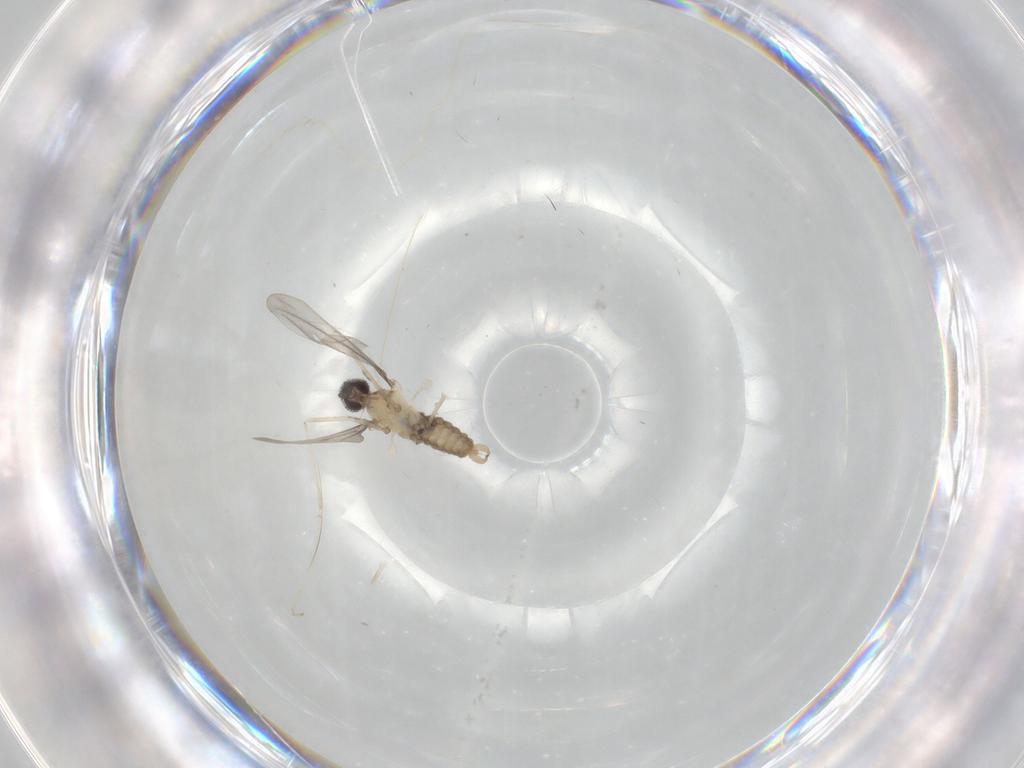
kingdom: Animalia
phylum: Arthropoda
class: Insecta
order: Diptera
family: Cecidomyiidae
